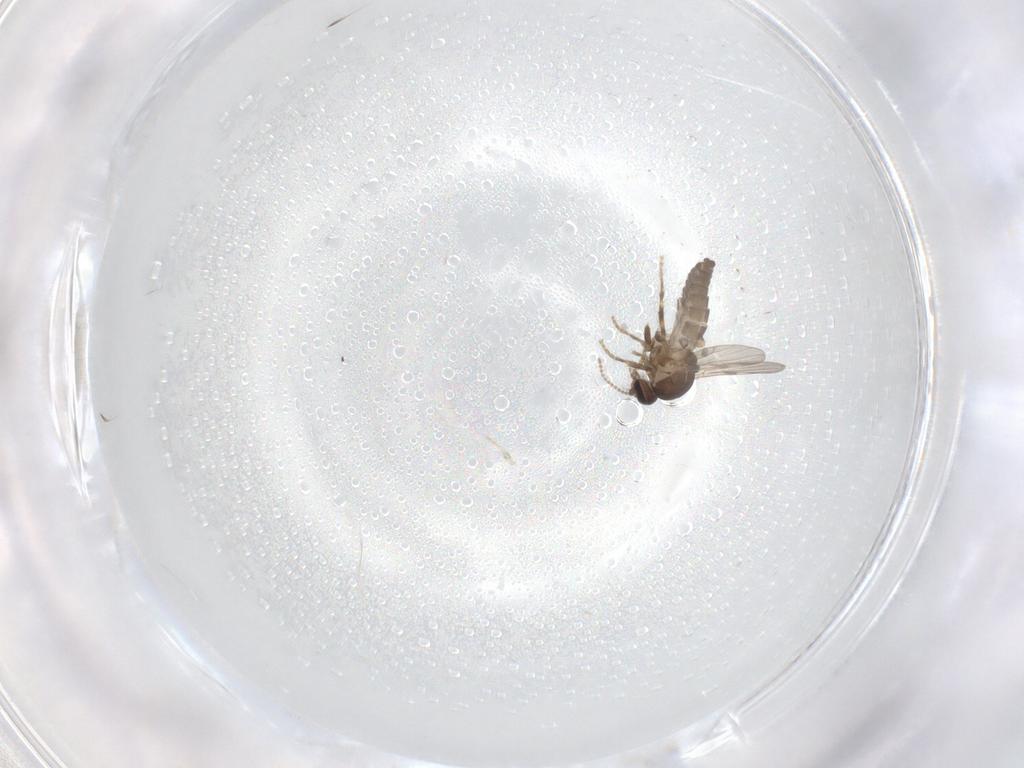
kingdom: Animalia
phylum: Arthropoda
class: Insecta
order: Diptera
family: Ceratopogonidae
